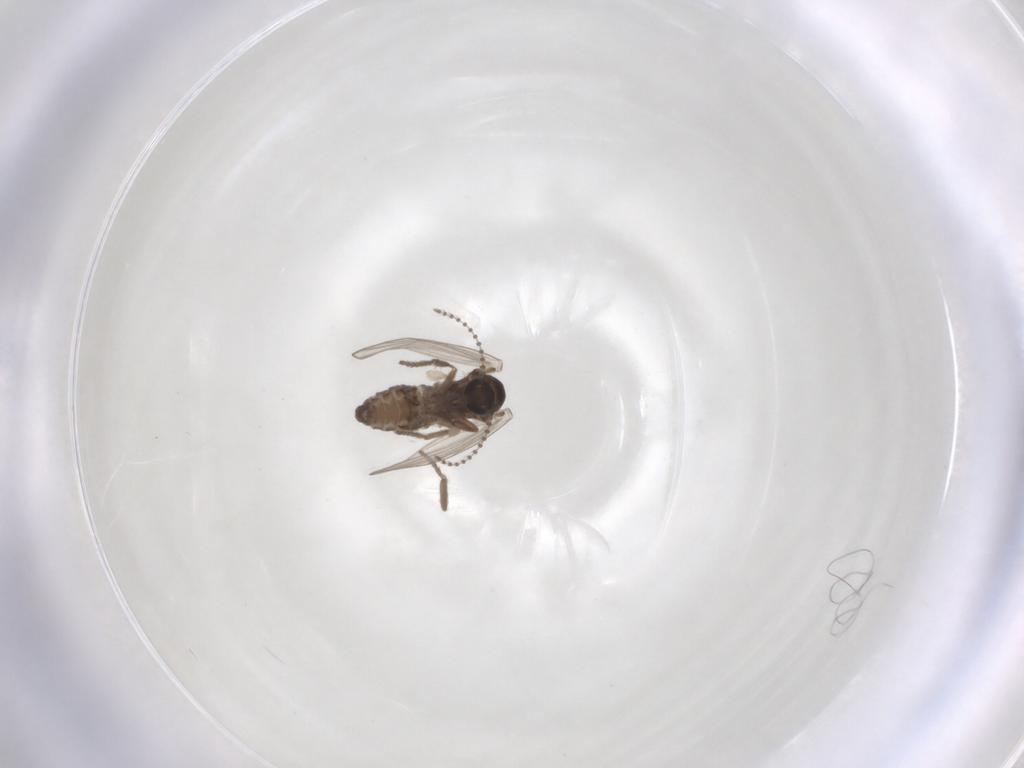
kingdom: Animalia
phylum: Arthropoda
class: Insecta
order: Diptera
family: Psychodidae
